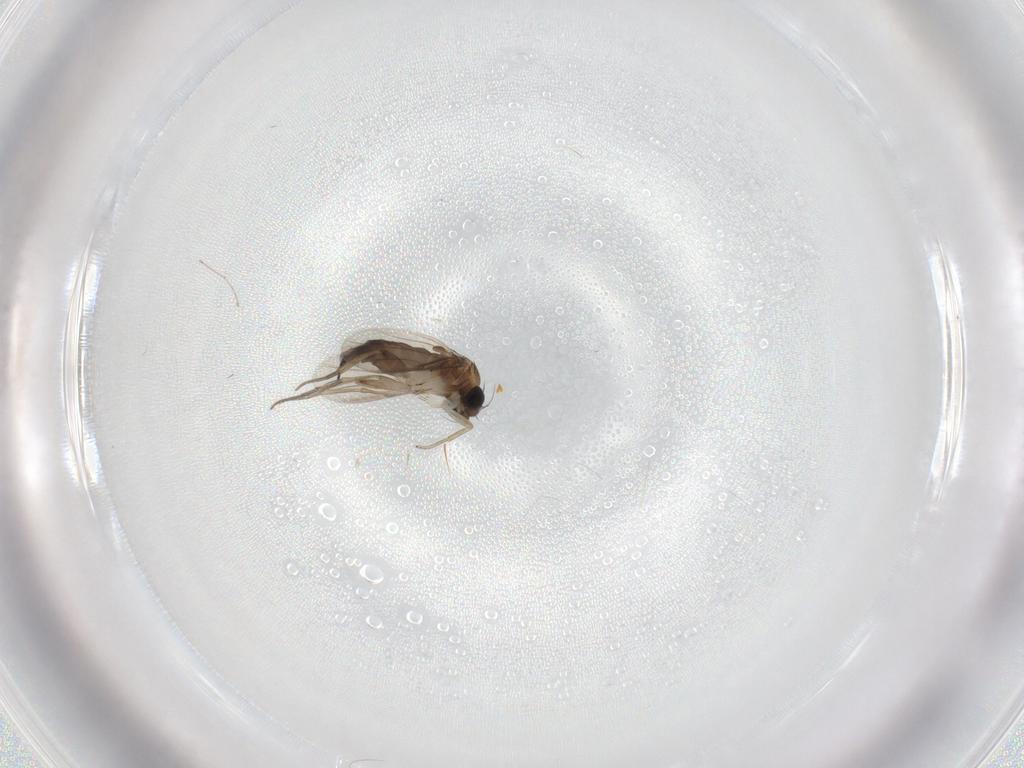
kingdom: Animalia
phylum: Arthropoda
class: Insecta
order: Diptera
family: Phoridae
